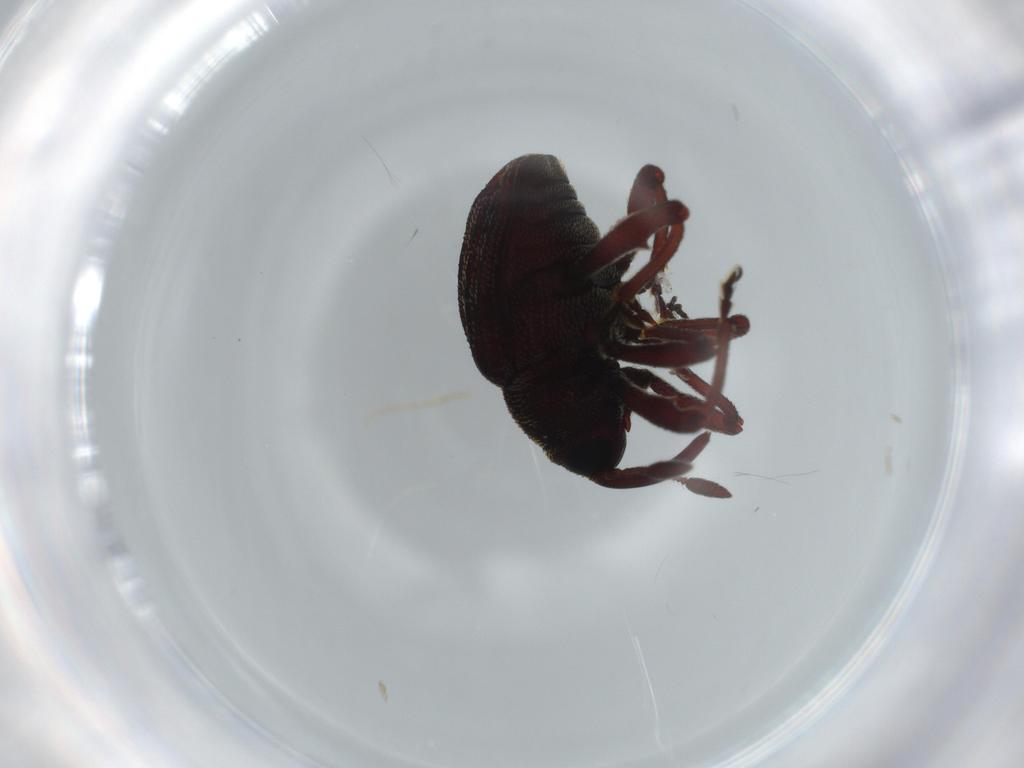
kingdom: Animalia
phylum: Arthropoda
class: Insecta
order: Coleoptera
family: Curculionidae
